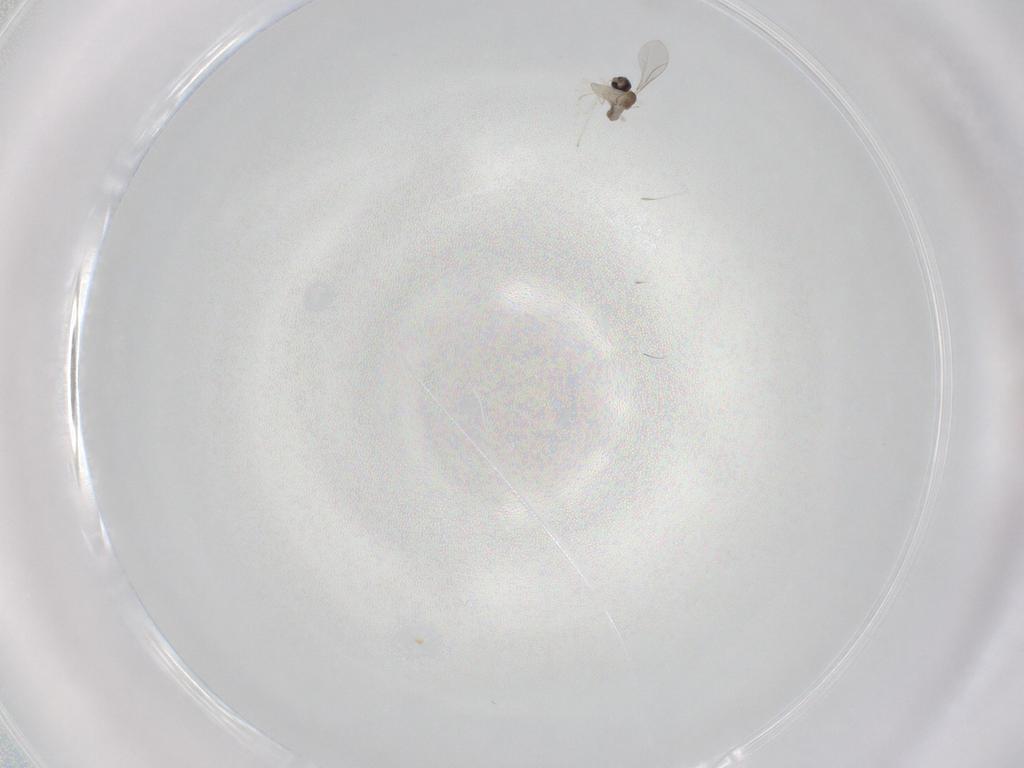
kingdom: Animalia
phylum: Arthropoda
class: Insecta
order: Diptera
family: Cecidomyiidae
